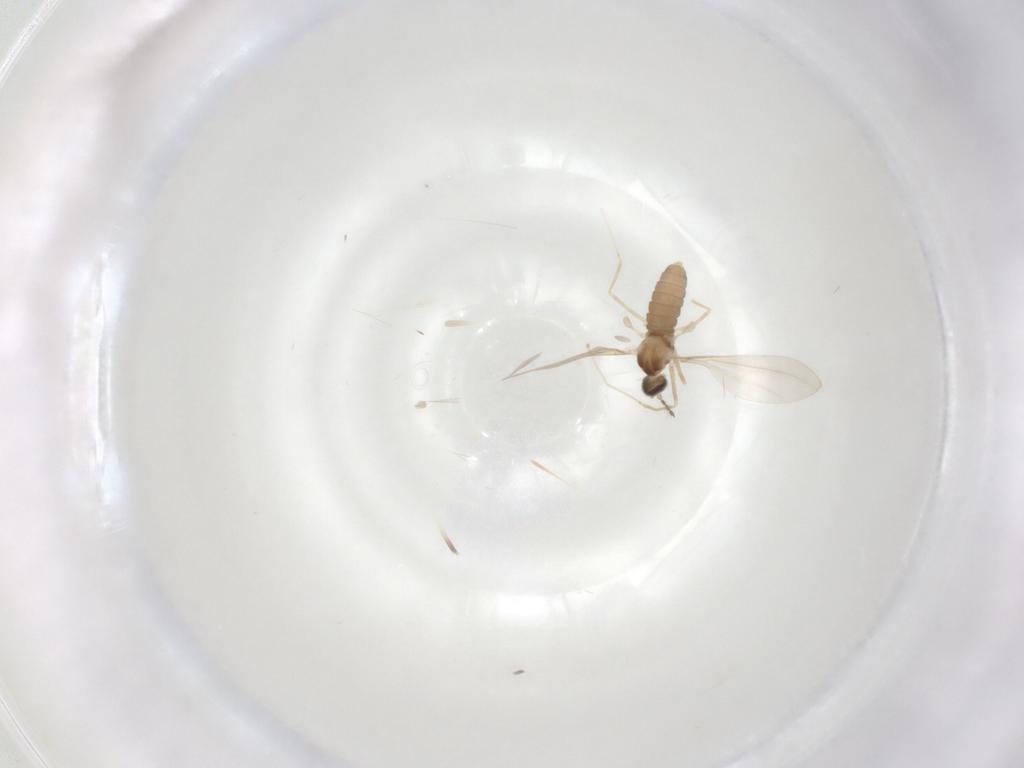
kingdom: Animalia
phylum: Arthropoda
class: Insecta
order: Diptera
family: Cecidomyiidae
